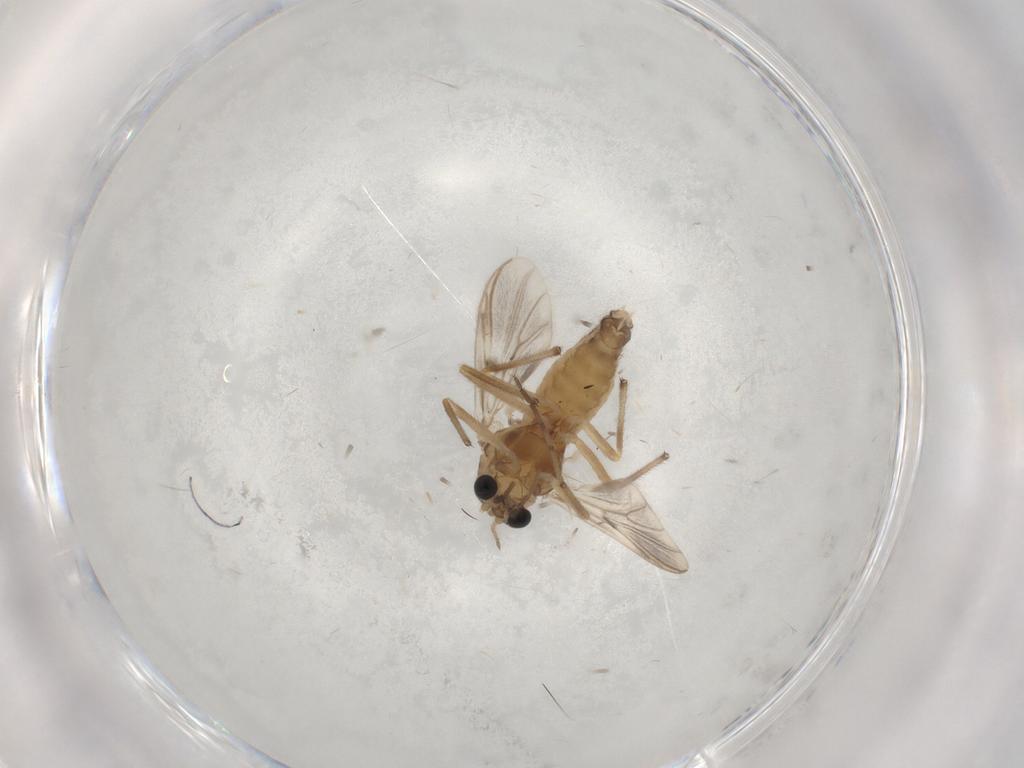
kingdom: Animalia
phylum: Arthropoda
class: Insecta
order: Diptera
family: Chironomidae
